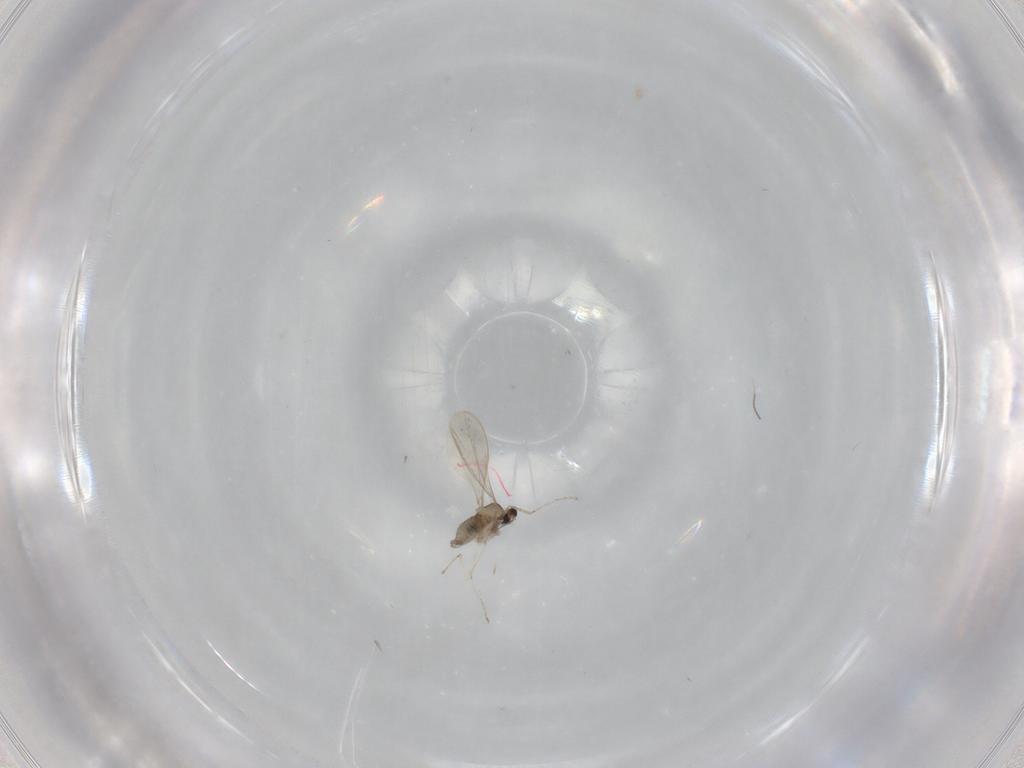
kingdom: Animalia
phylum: Arthropoda
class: Insecta
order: Diptera
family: Cecidomyiidae
